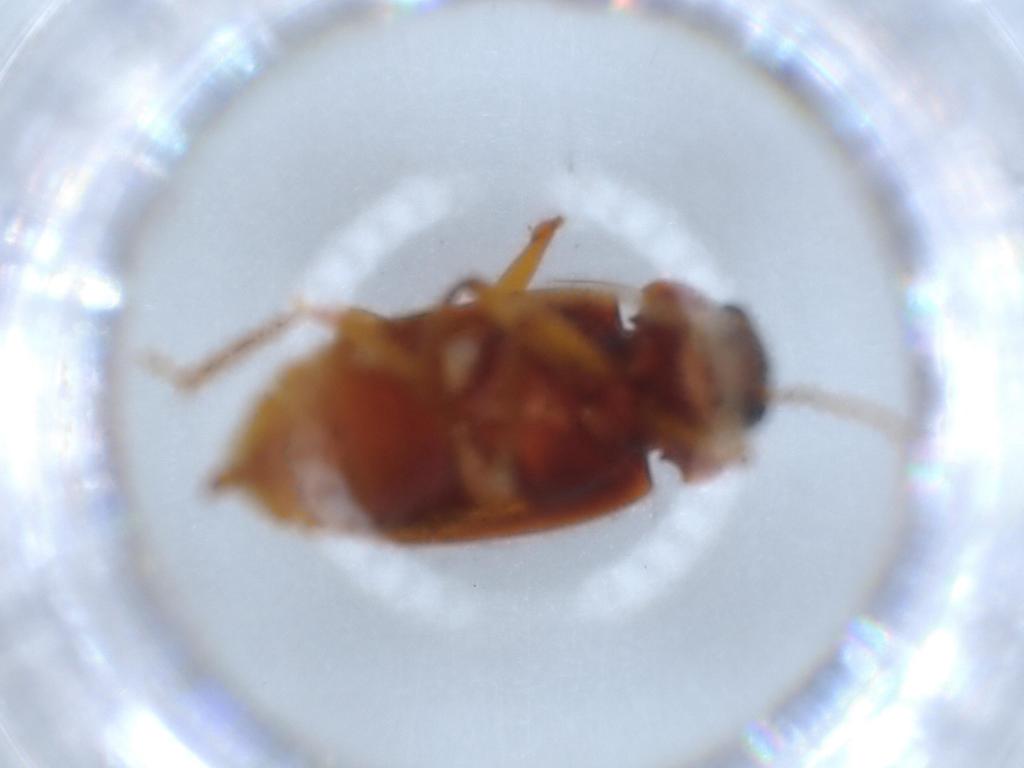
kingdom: Animalia
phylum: Arthropoda
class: Insecta
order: Coleoptera
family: Ptilodactylidae
